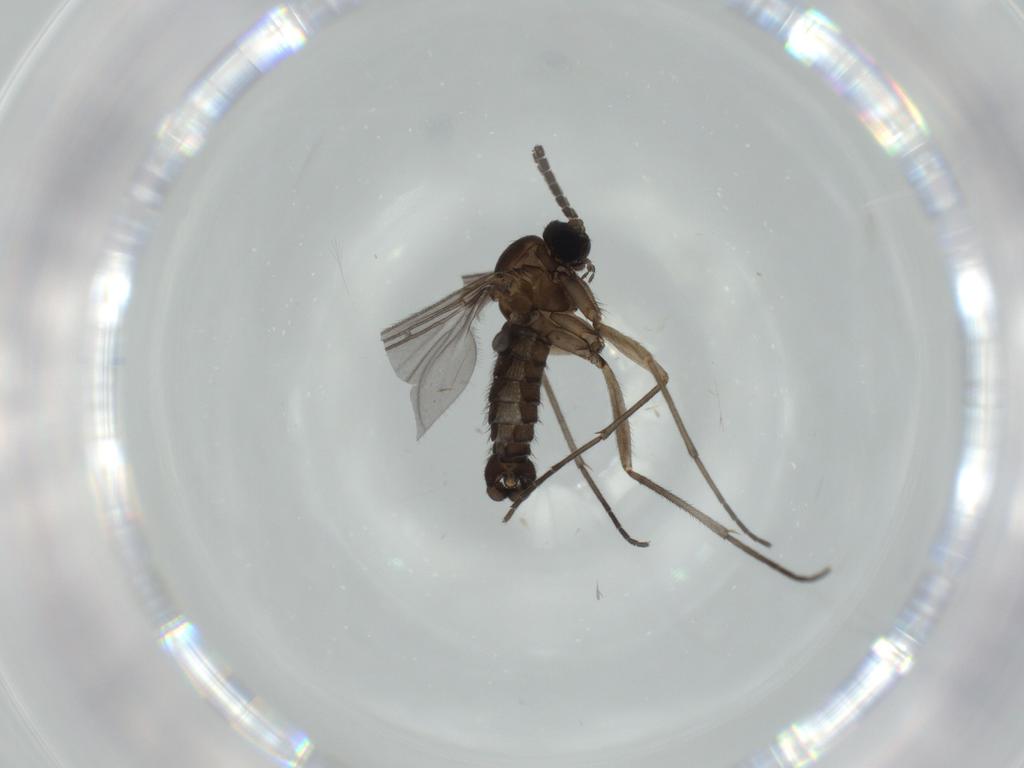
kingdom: Animalia
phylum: Arthropoda
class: Insecta
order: Diptera
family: Sciaridae
